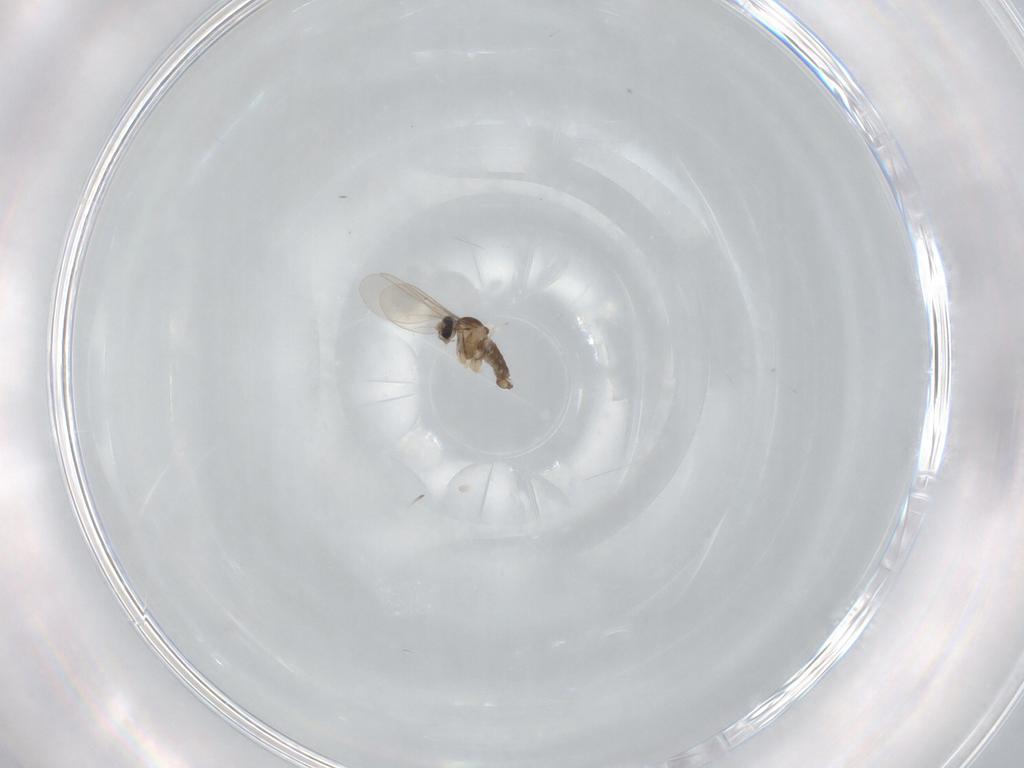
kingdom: Animalia
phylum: Arthropoda
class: Insecta
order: Diptera
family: Cecidomyiidae
